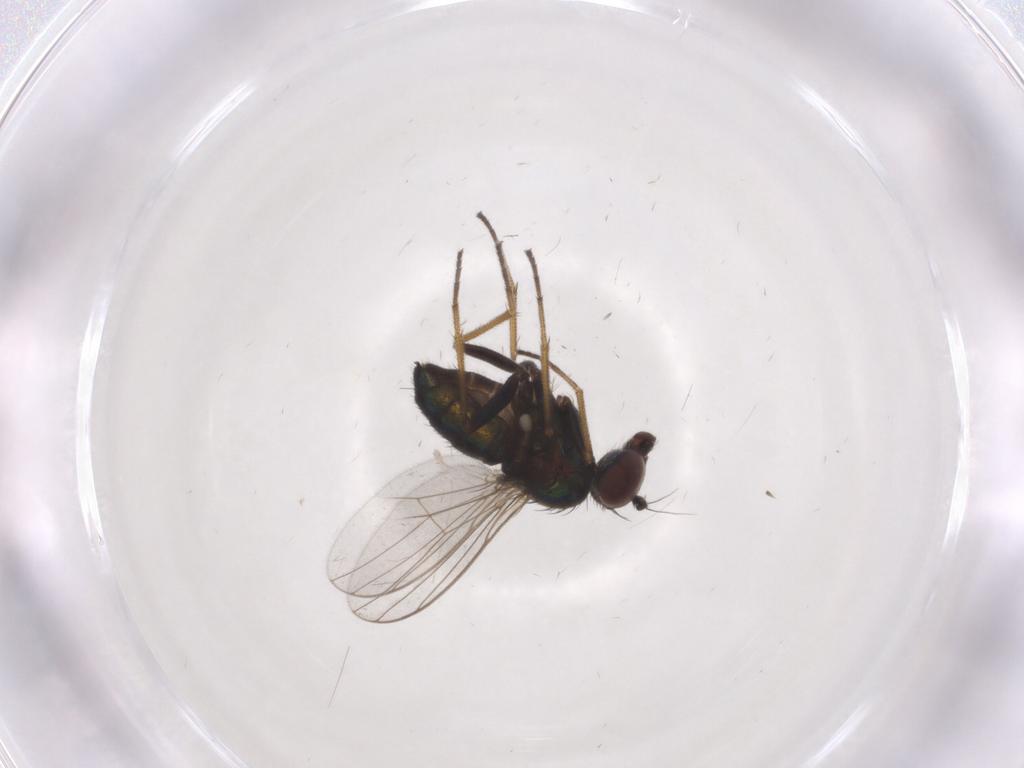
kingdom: Animalia
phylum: Arthropoda
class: Insecta
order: Diptera
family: Dolichopodidae
